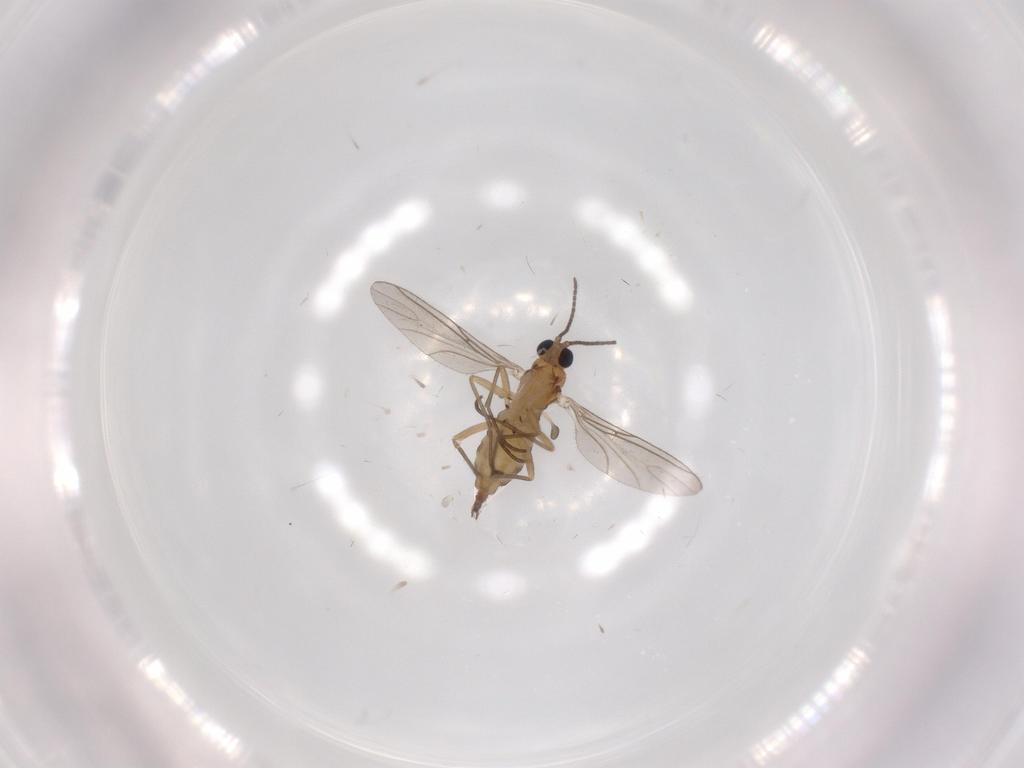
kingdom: Animalia
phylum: Arthropoda
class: Insecta
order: Diptera
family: Sciaridae
